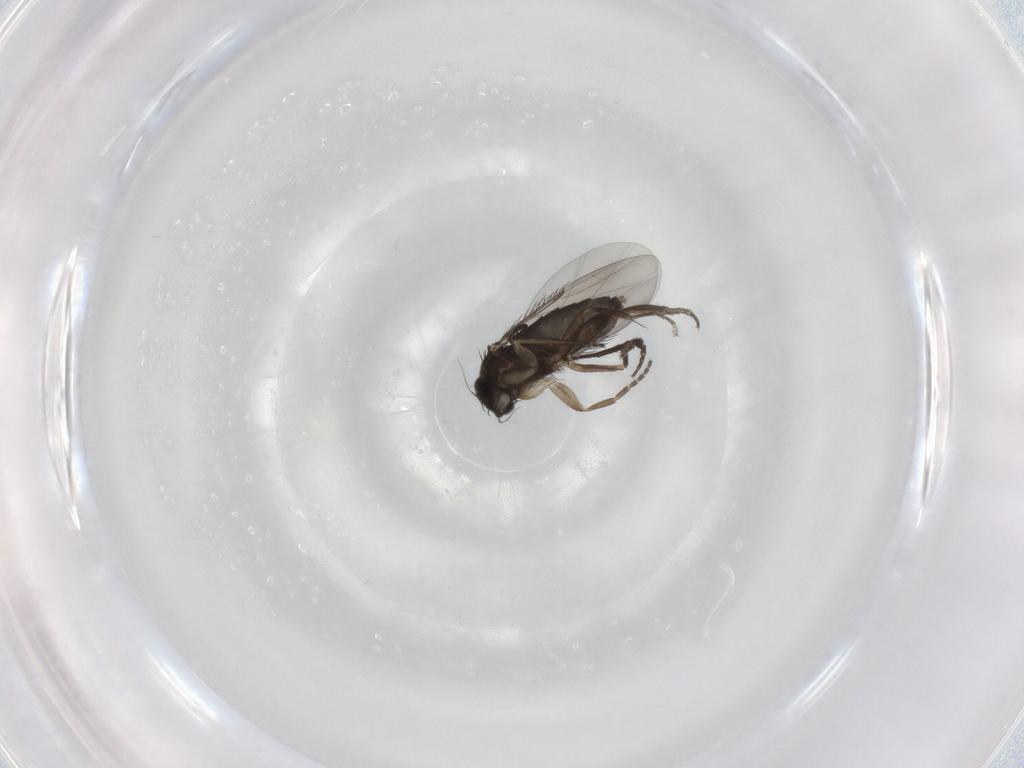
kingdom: Animalia
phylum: Arthropoda
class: Insecta
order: Diptera
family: Phoridae
